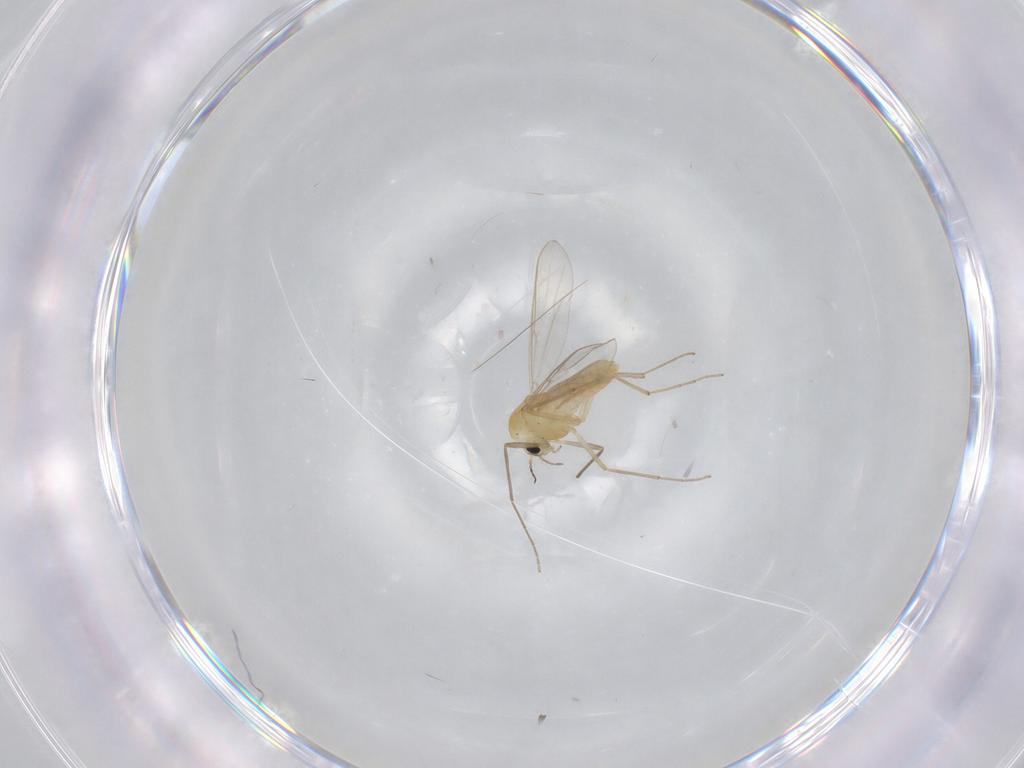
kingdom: Animalia
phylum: Arthropoda
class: Insecta
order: Diptera
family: Chironomidae
